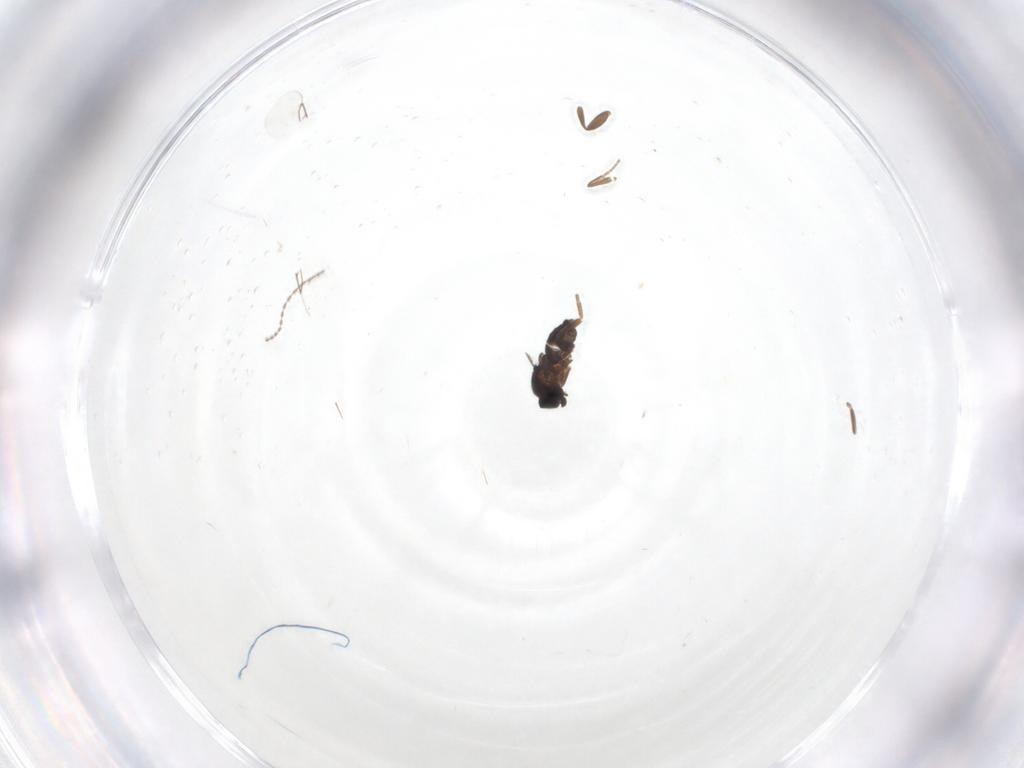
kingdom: Animalia
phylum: Arthropoda
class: Insecta
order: Diptera
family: Cecidomyiidae
